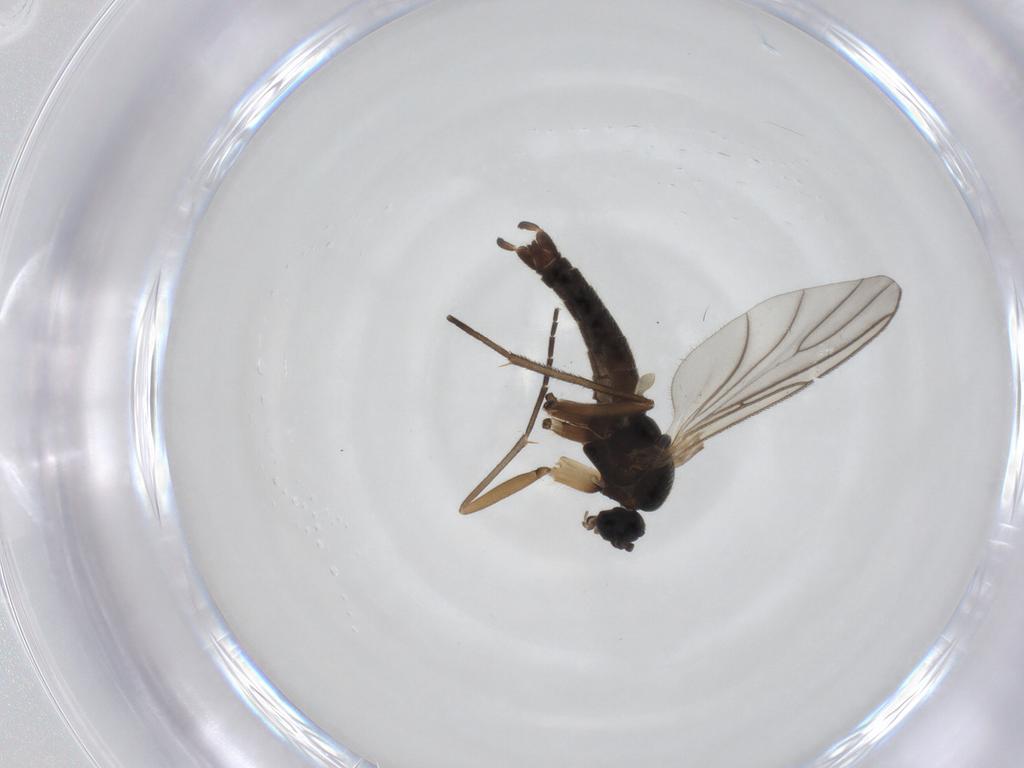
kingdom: Animalia
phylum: Arthropoda
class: Insecta
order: Diptera
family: Sciaridae
